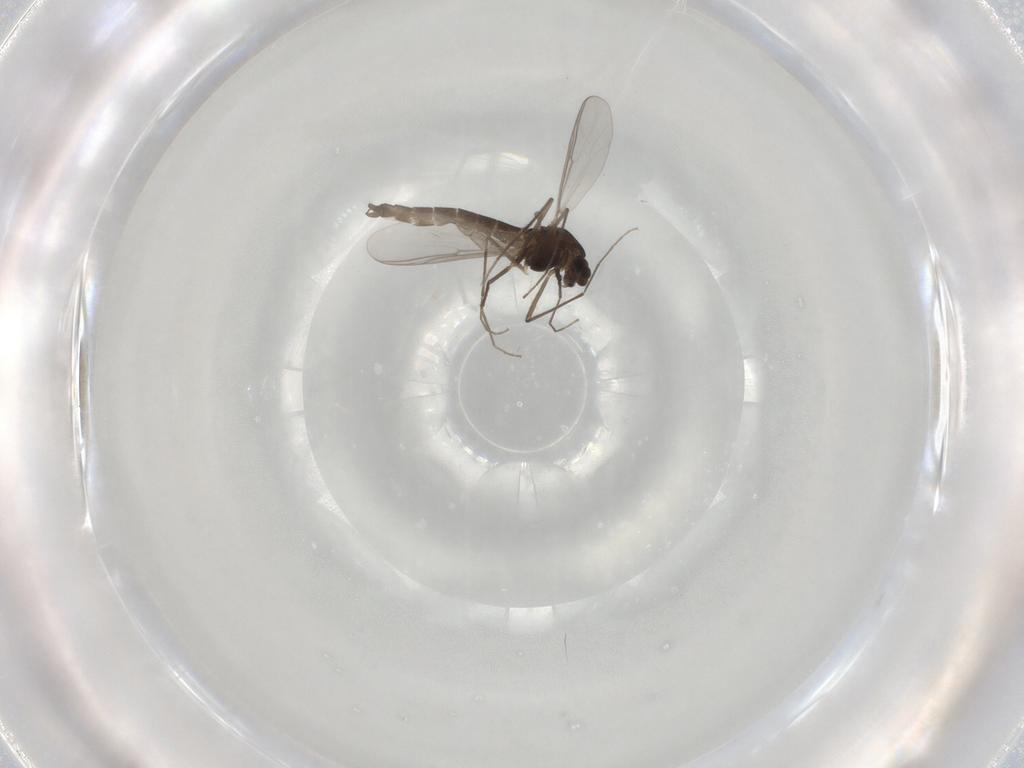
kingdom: Animalia
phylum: Arthropoda
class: Insecta
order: Diptera
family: Chironomidae
